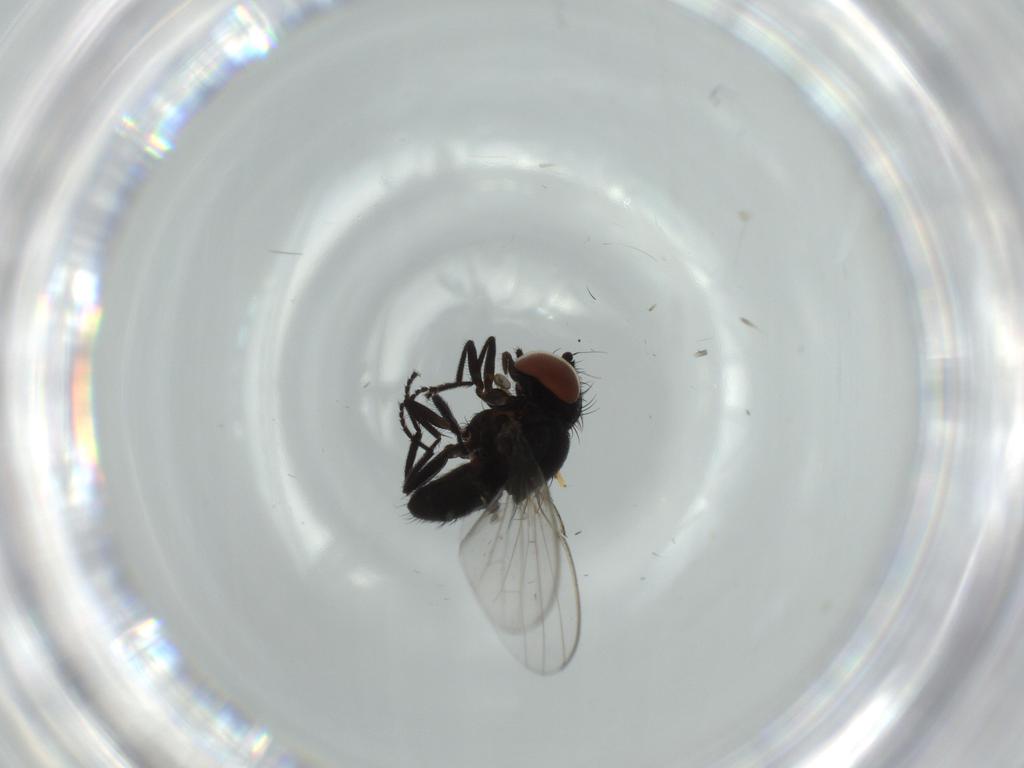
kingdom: Animalia
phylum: Arthropoda
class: Insecta
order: Diptera
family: Milichiidae
